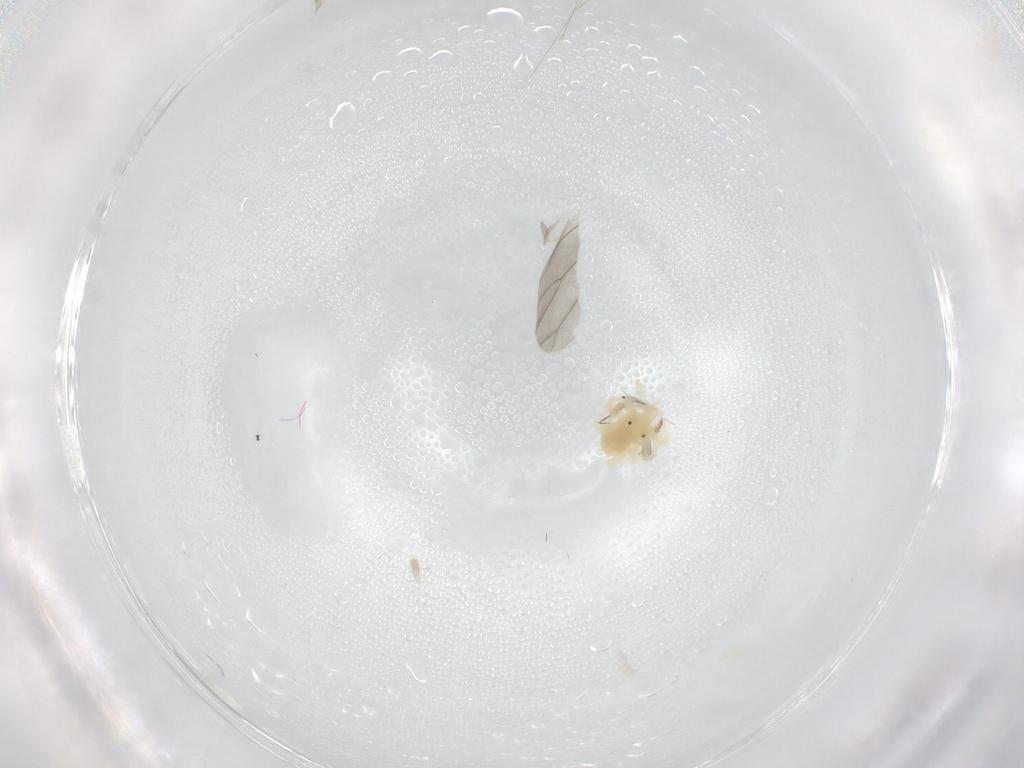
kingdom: Animalia
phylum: Arthropoda
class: Arachnida
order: Trombidiformes
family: Anystidae
